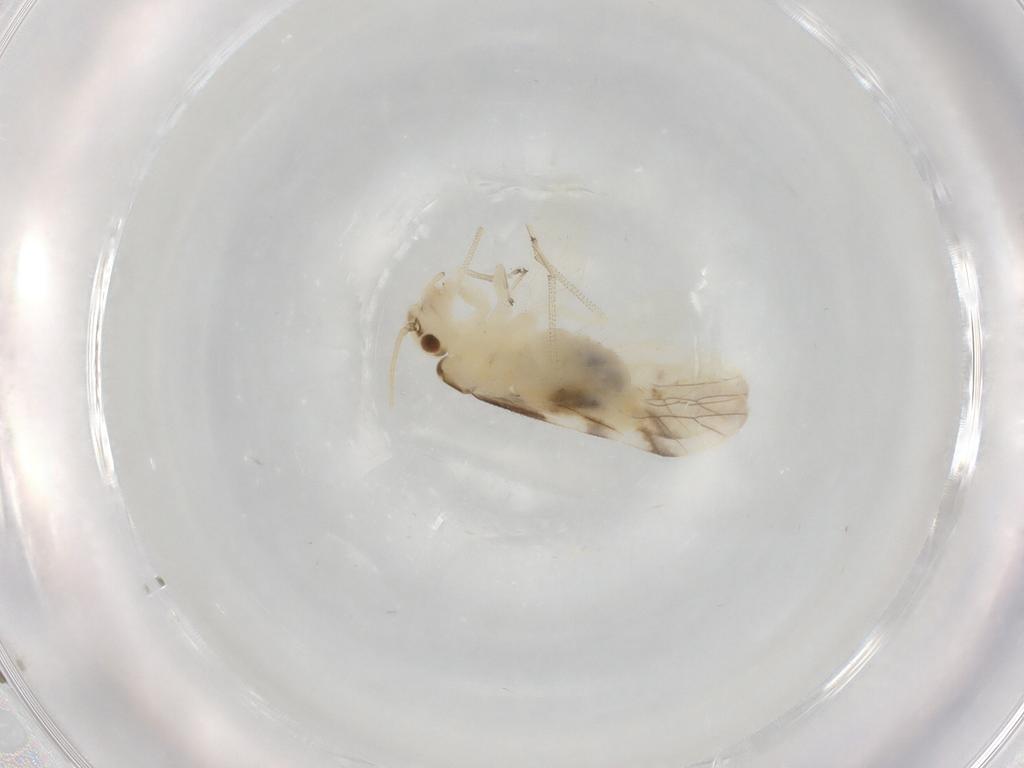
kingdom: Animalia
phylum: Arthropoda
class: Insecta
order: Psocodea
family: Caeciliusidae
